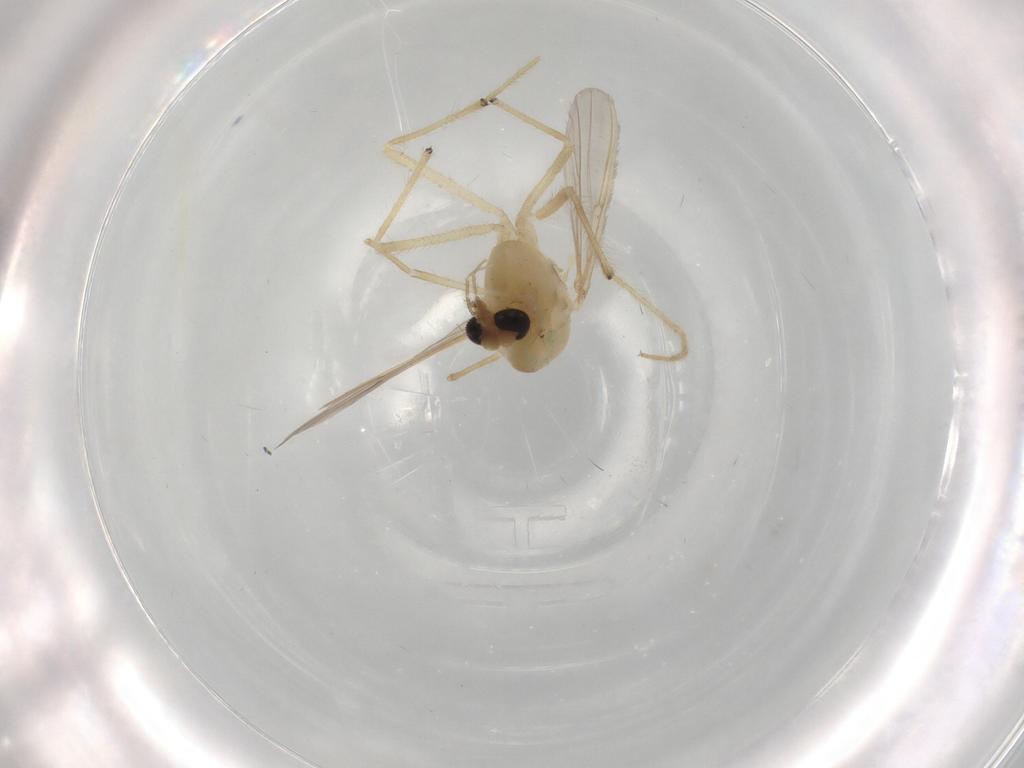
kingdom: Animalia
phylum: Arthropoda
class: Insecta
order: Diptera
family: Chironomidae
